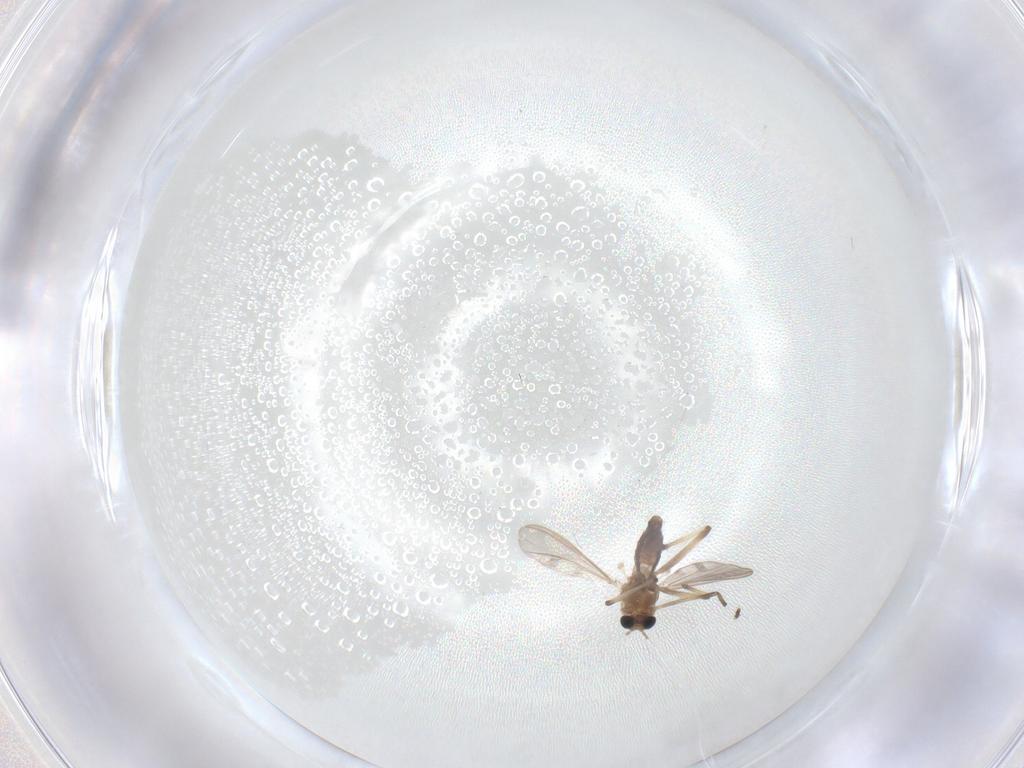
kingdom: Animalia
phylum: Arthropoda
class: Insecta
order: Diptera
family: Chironomidae
